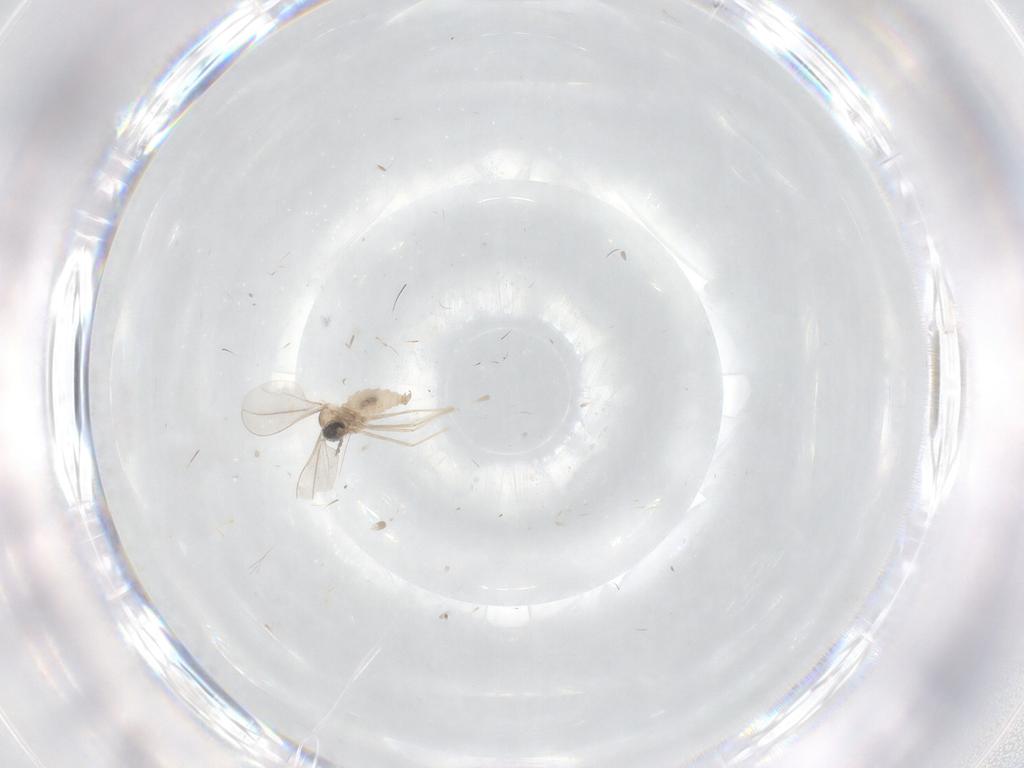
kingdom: Animalia
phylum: Arthropoda
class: Insecta
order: Diptera
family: Cecidomyiidae
